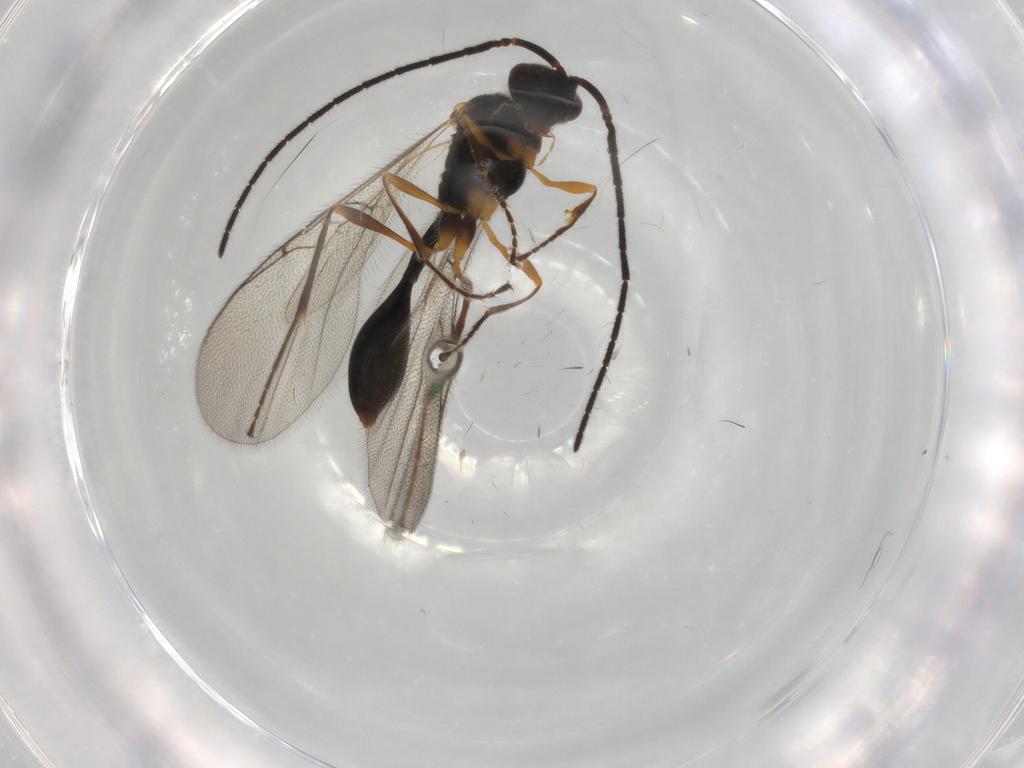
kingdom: Animalia
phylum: Arthropoda
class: Insecta
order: Hymenoptera
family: Diapriidae
